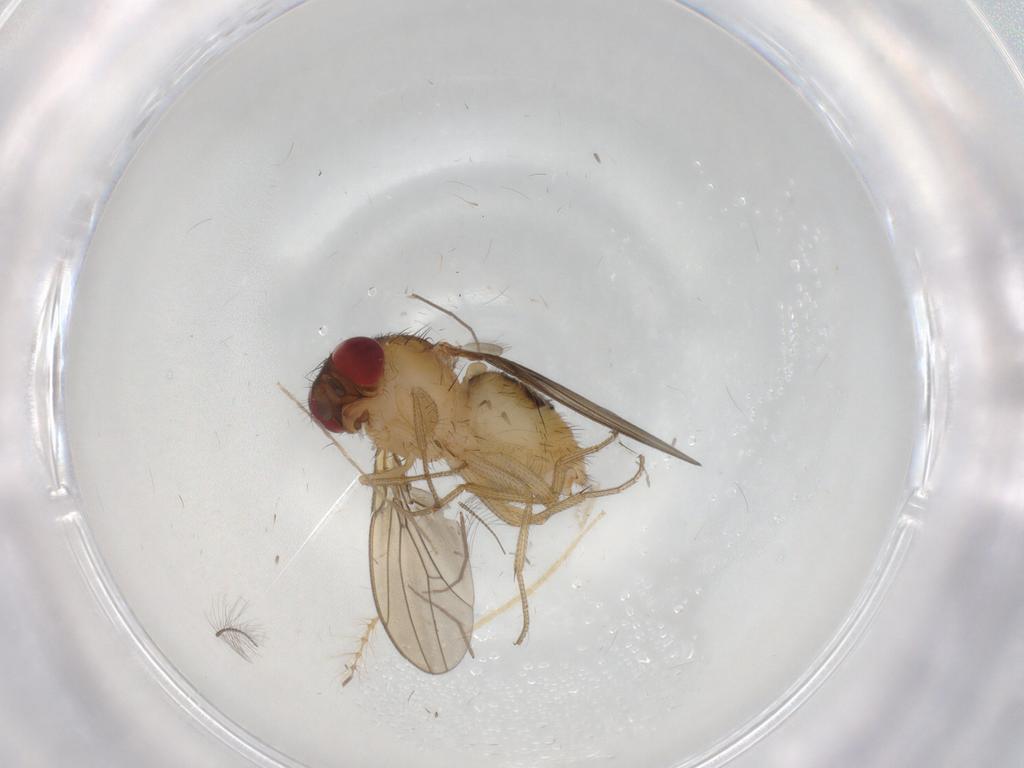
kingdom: Animalia
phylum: Arthropoda
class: Insecta
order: Diptera
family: Drosophilidae
